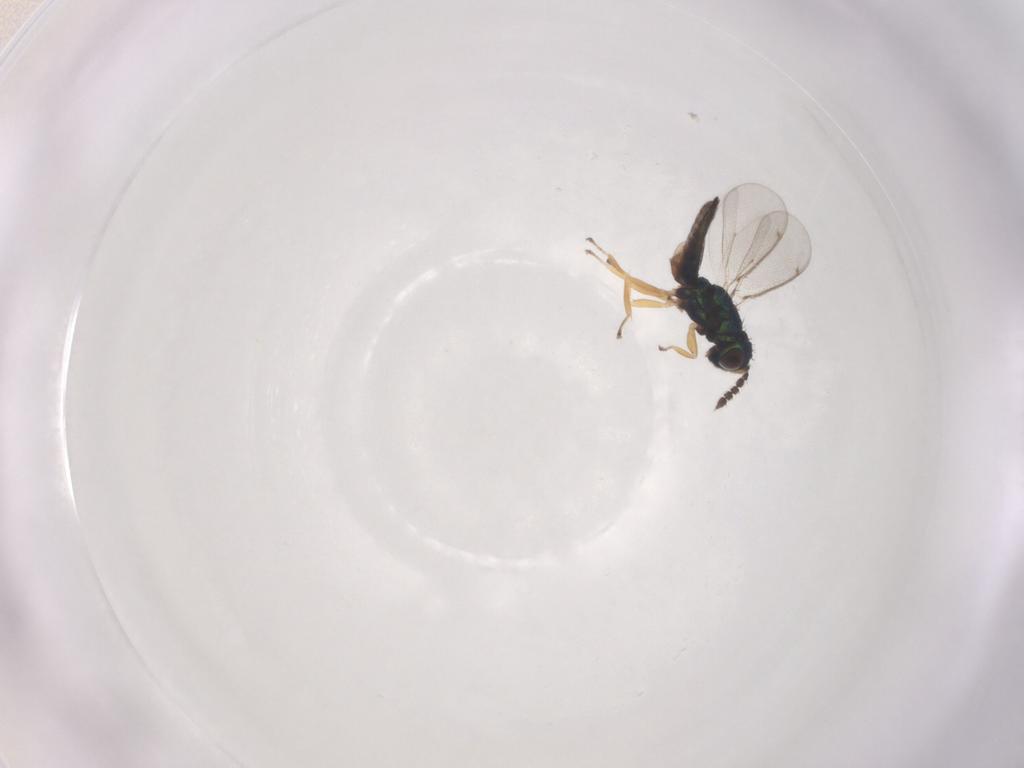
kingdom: Animalia
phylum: Arthropoda
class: Insecta
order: Hymenoptera
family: Eulophidae
